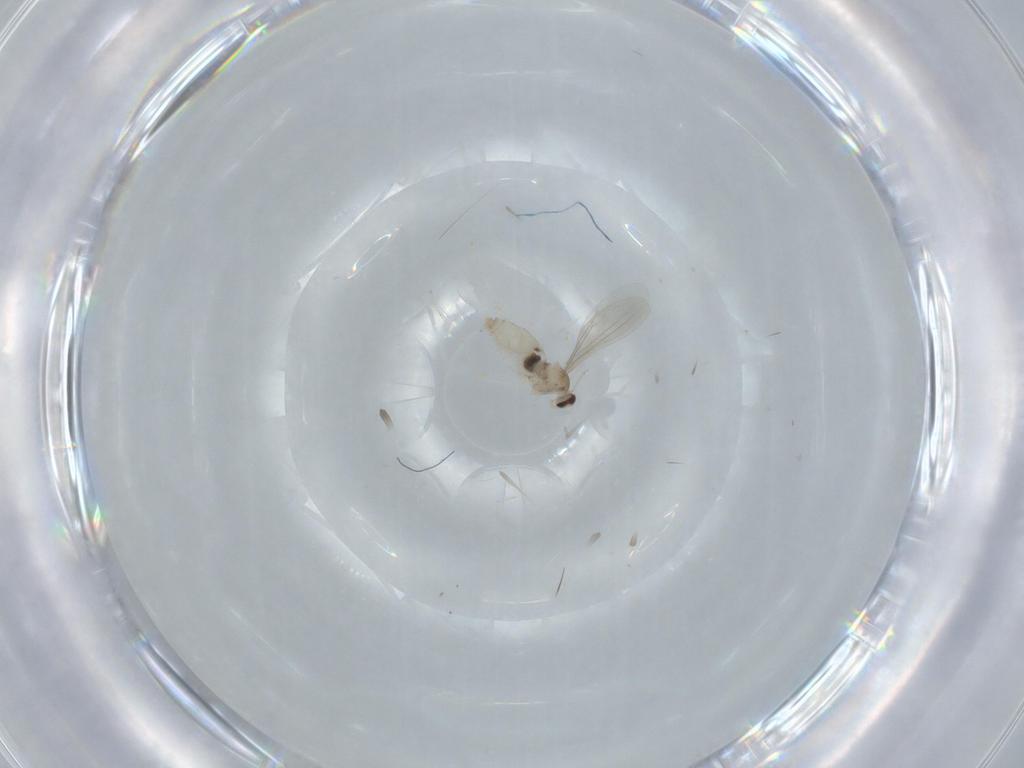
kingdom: Animalia
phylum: Arthropoda
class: Insecta
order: Diptera
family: Cecidomyiidae
